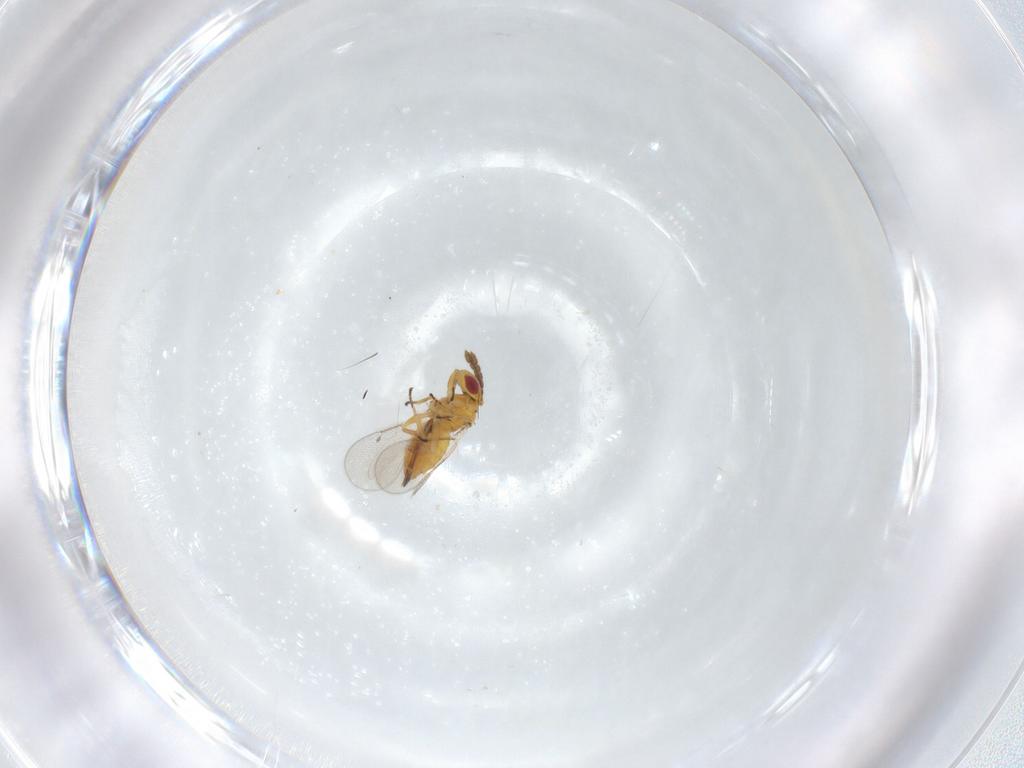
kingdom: Animalia
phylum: Arthropoda
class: Insecta
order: Hymenoptera
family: Eulophidae
